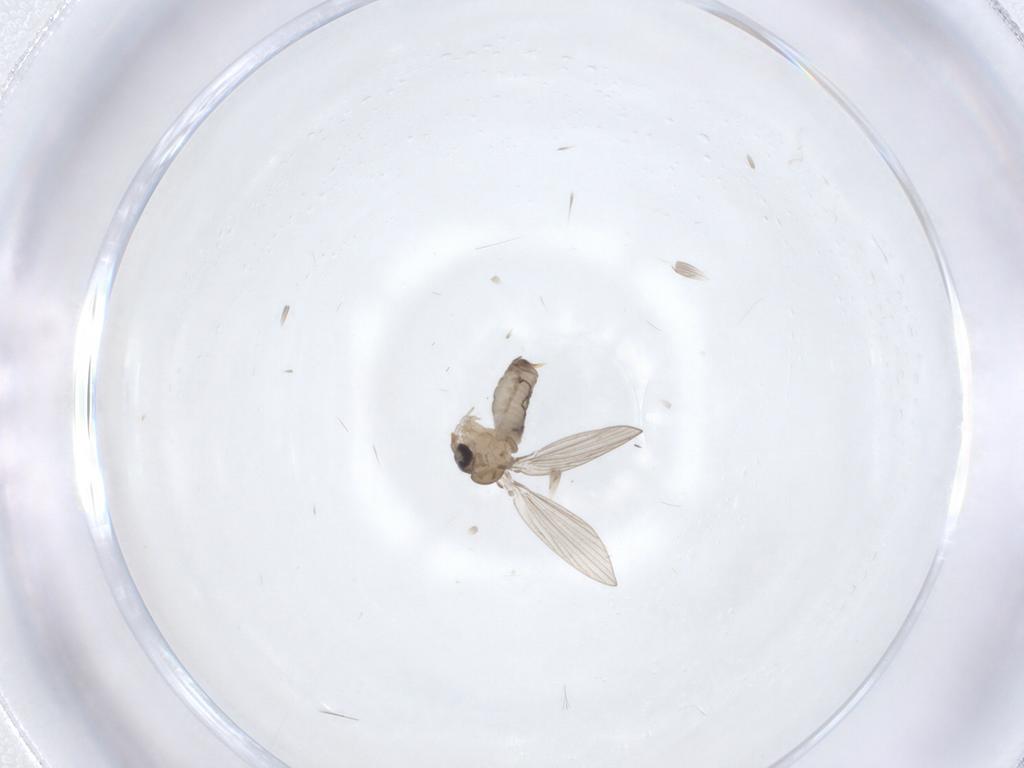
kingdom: Animalia
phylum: Arthropoda
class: Insecta
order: Diptera
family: Psychodidae
